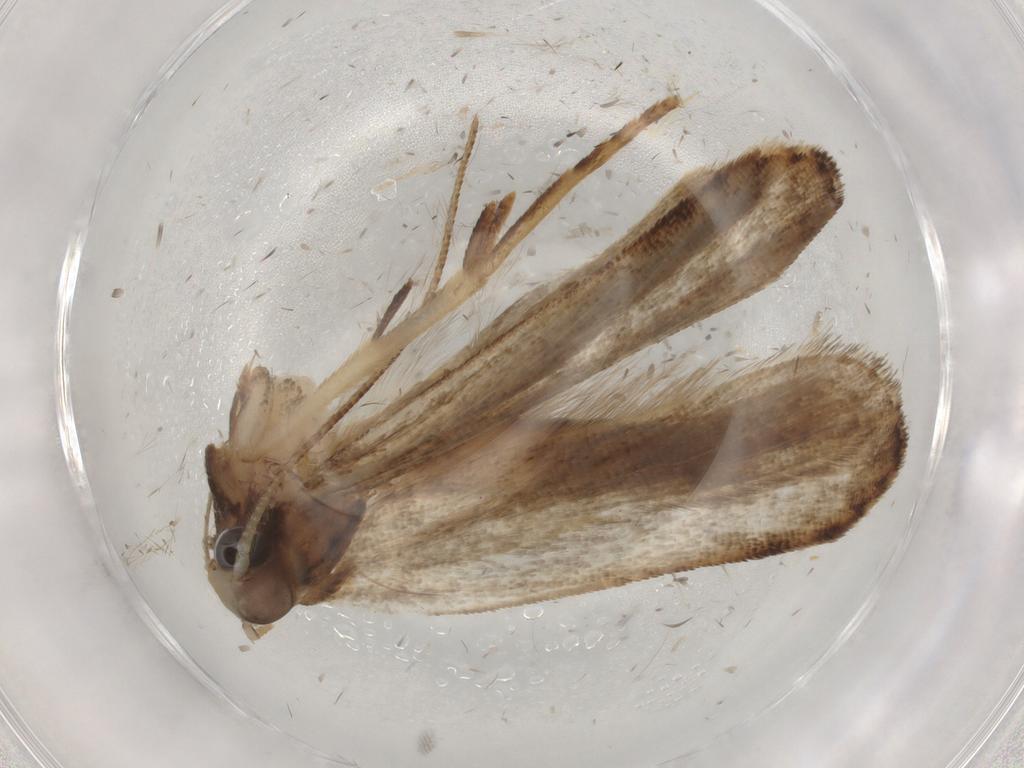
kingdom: Animalia
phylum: Arthropoda
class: Insecta
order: Lepidoptera
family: Gelechiidae
